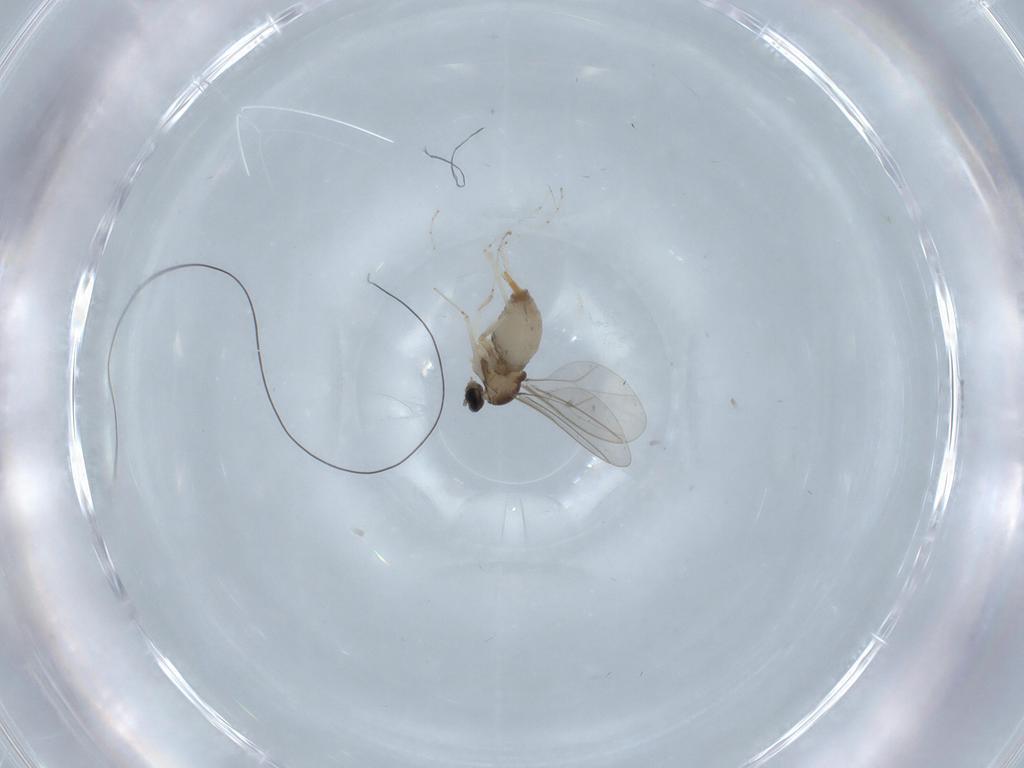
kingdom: Animalia
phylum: Arthropoda
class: Insecta
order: Diptera
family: Cecidomyiidae
